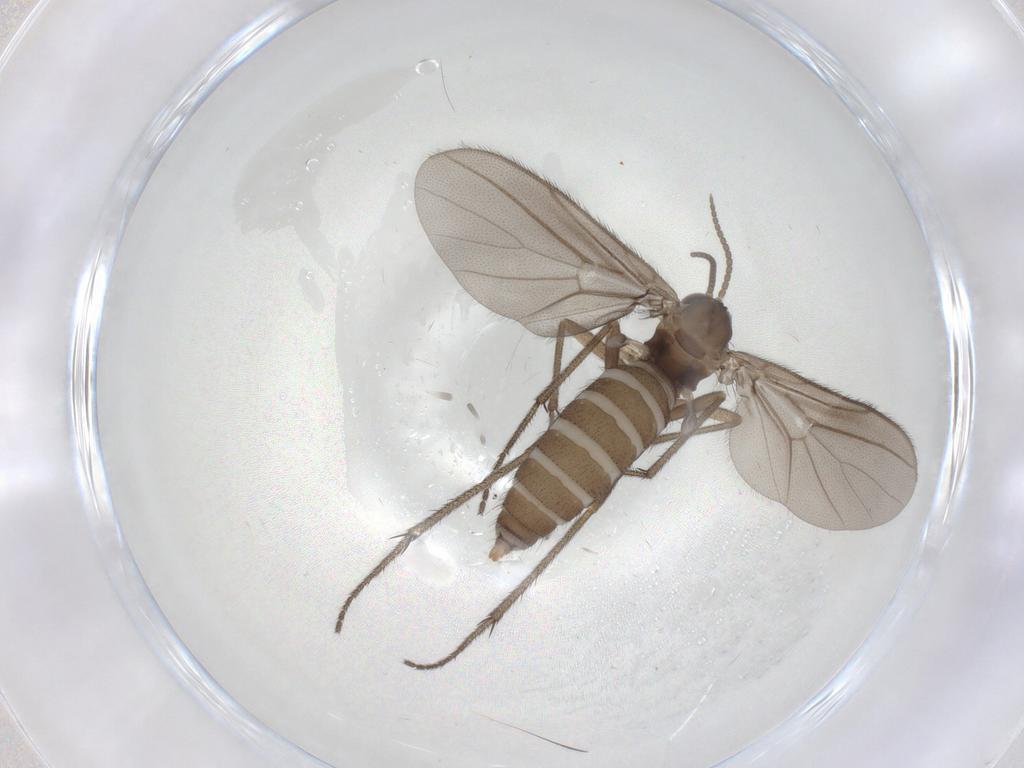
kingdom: Animalia
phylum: Arthropoda
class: Insecta
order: Diptera
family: Diadocidiidae
